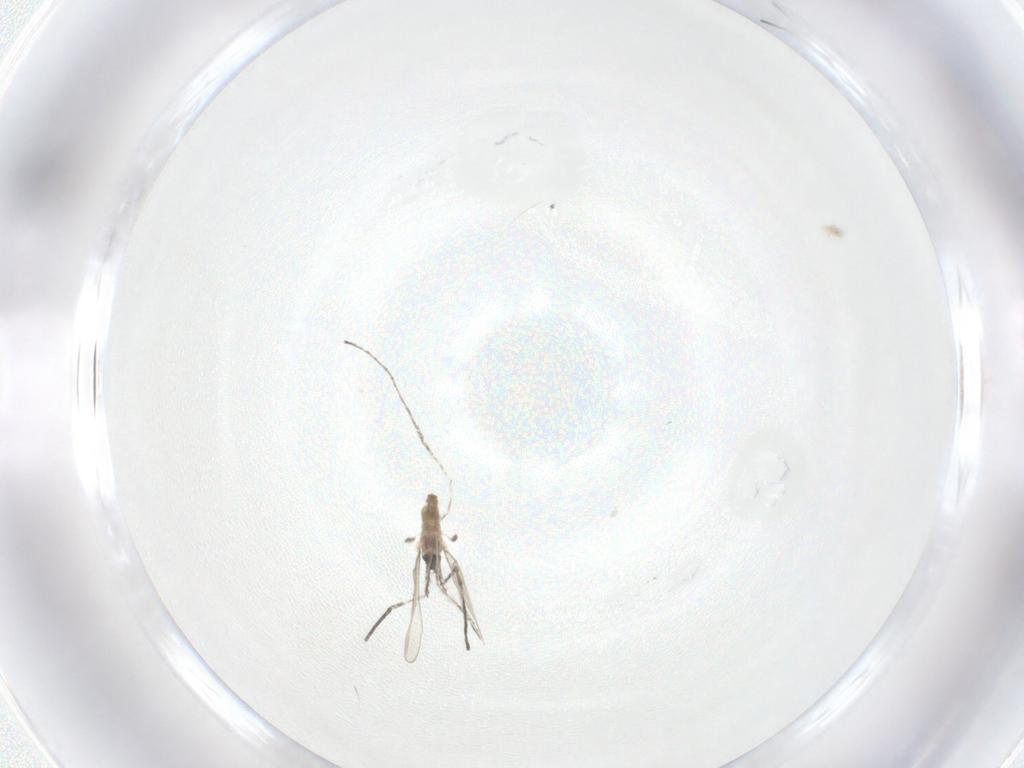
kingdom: Animalia
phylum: Arthropoda
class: Insecta
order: Diptera
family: Cecidomyiidae
